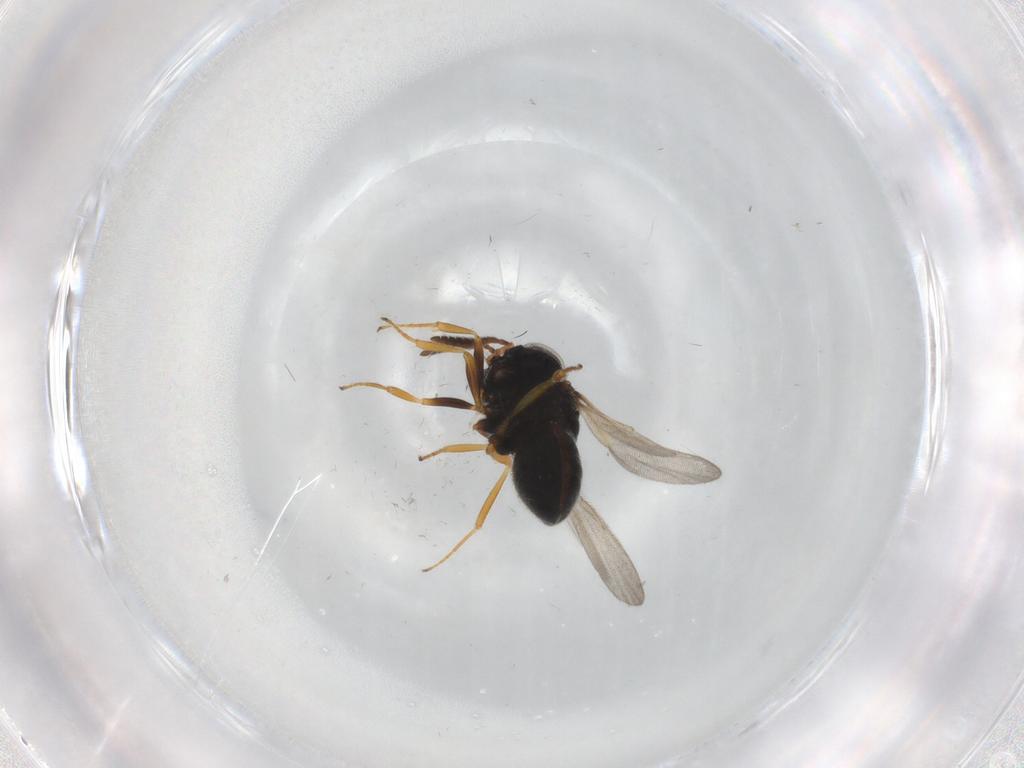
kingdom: Animalia
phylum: Arthropoda
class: Insecta
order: Hymenoptera
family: Scelionidae
